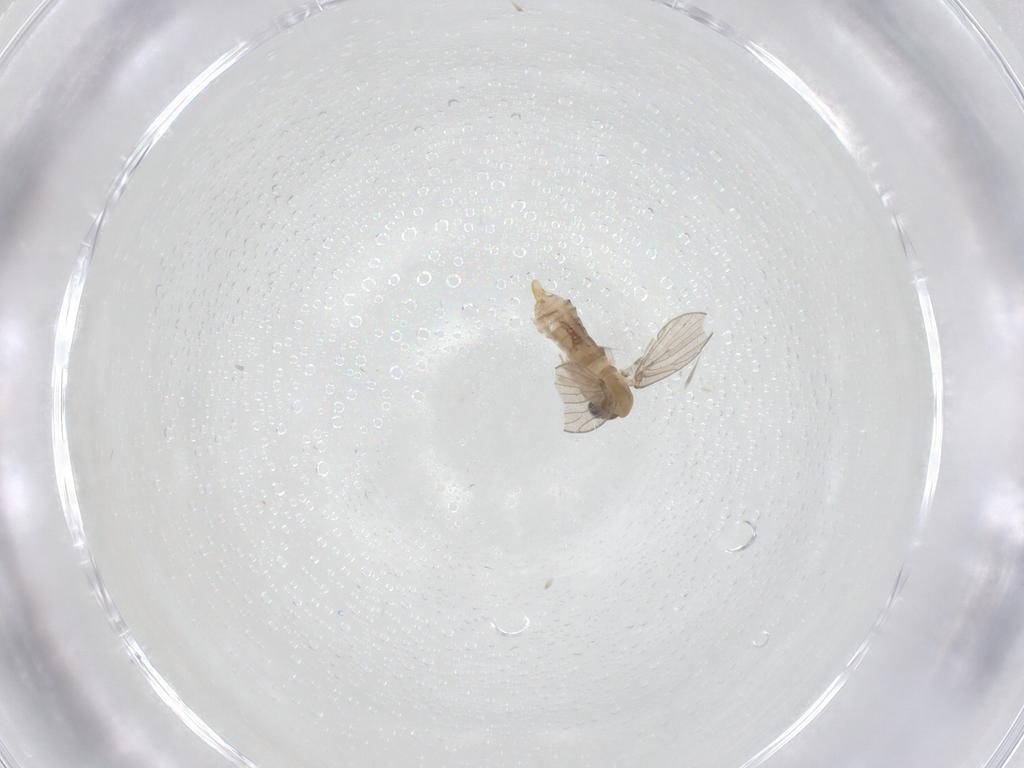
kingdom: Animalia
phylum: Arthropoda
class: Insecta
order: Diptera
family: Psychodidae
